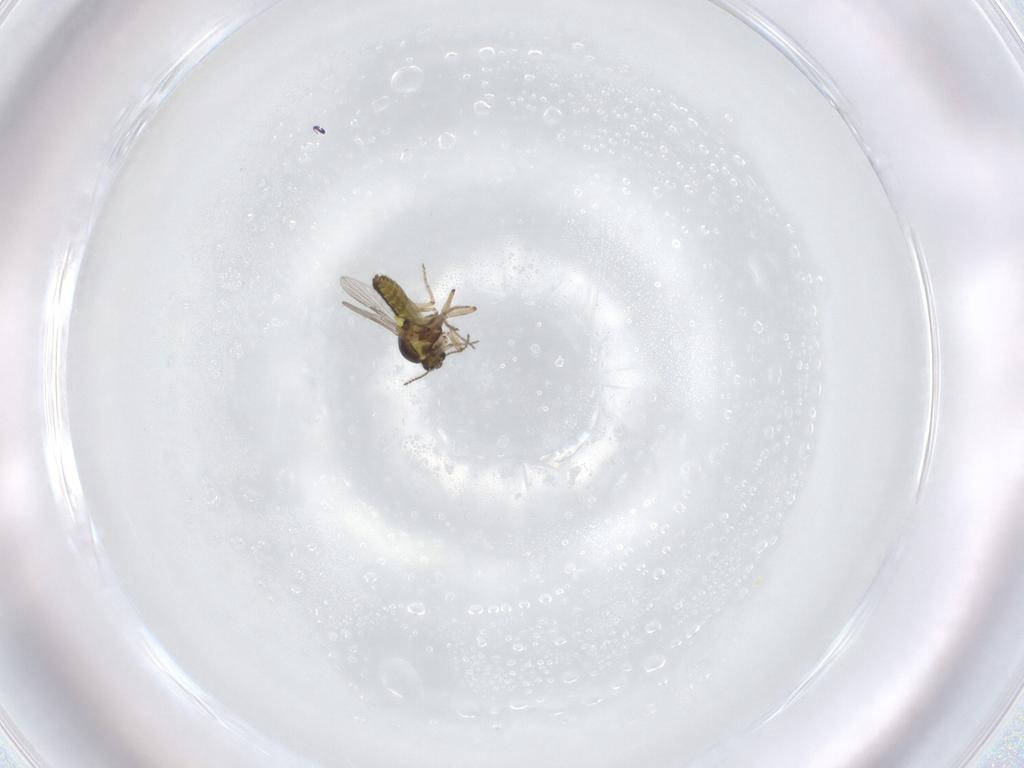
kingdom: Animalia
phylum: Arthropoda
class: Insecta
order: Diptera
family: Ceratopogonidae
